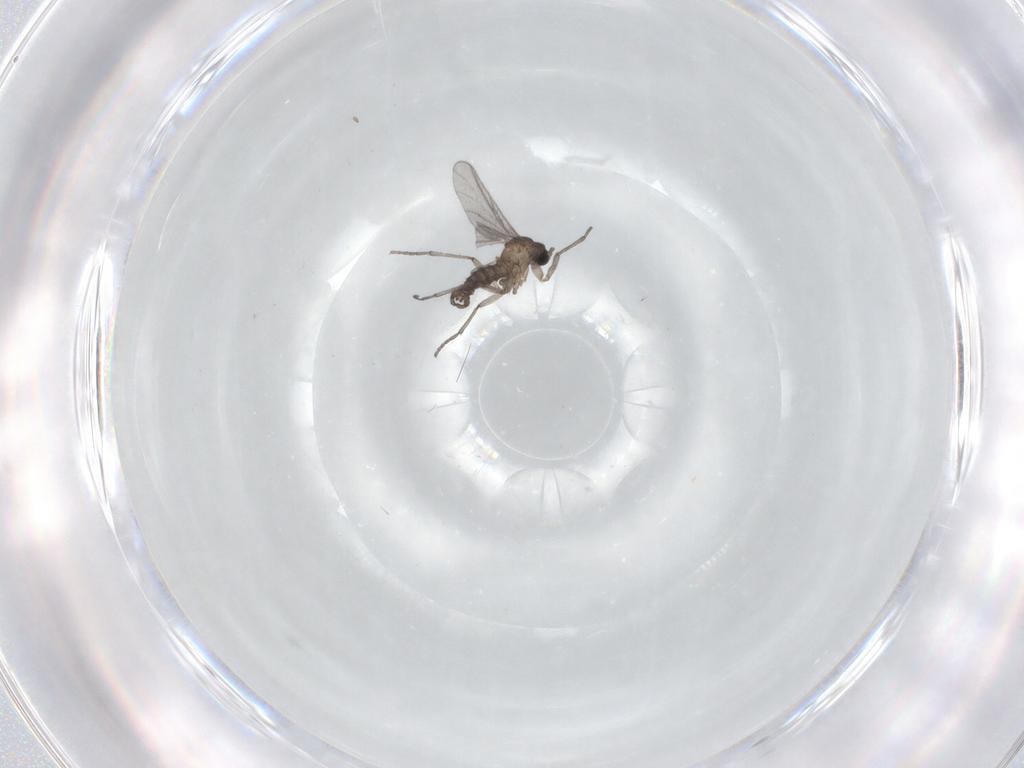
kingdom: Animalia
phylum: Arthropoda
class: Insecta
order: Diptera
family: Sciaridae
